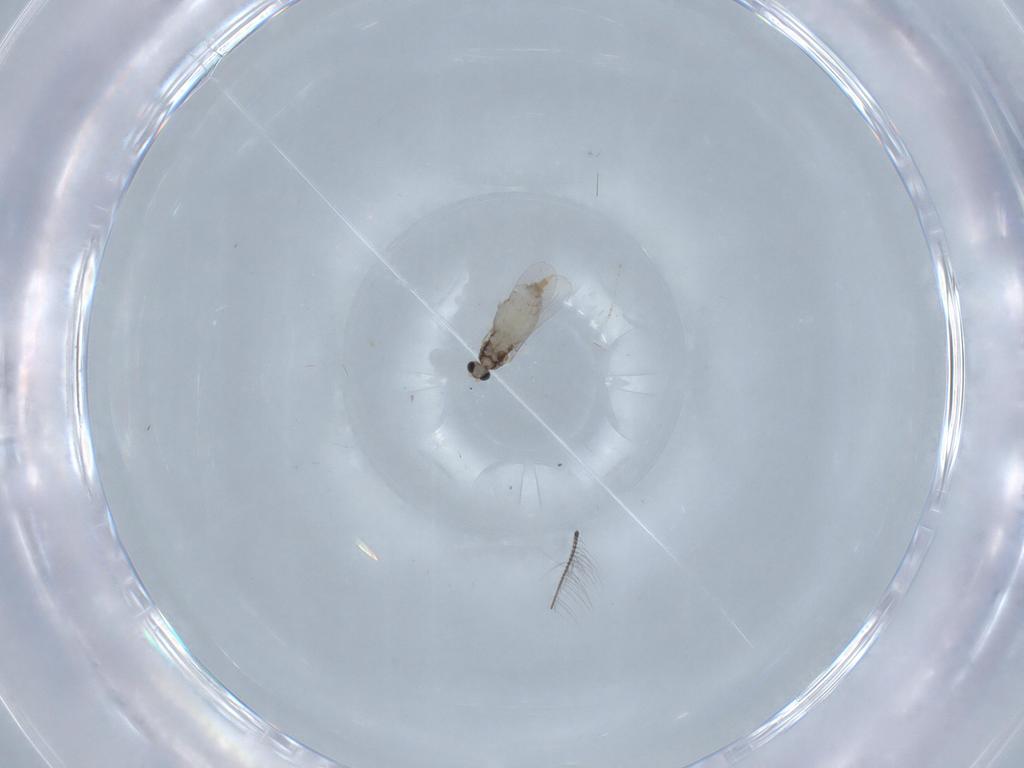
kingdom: Animalia
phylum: Arthropoda
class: Insecta
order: Diptera
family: Cecidomyiidae
